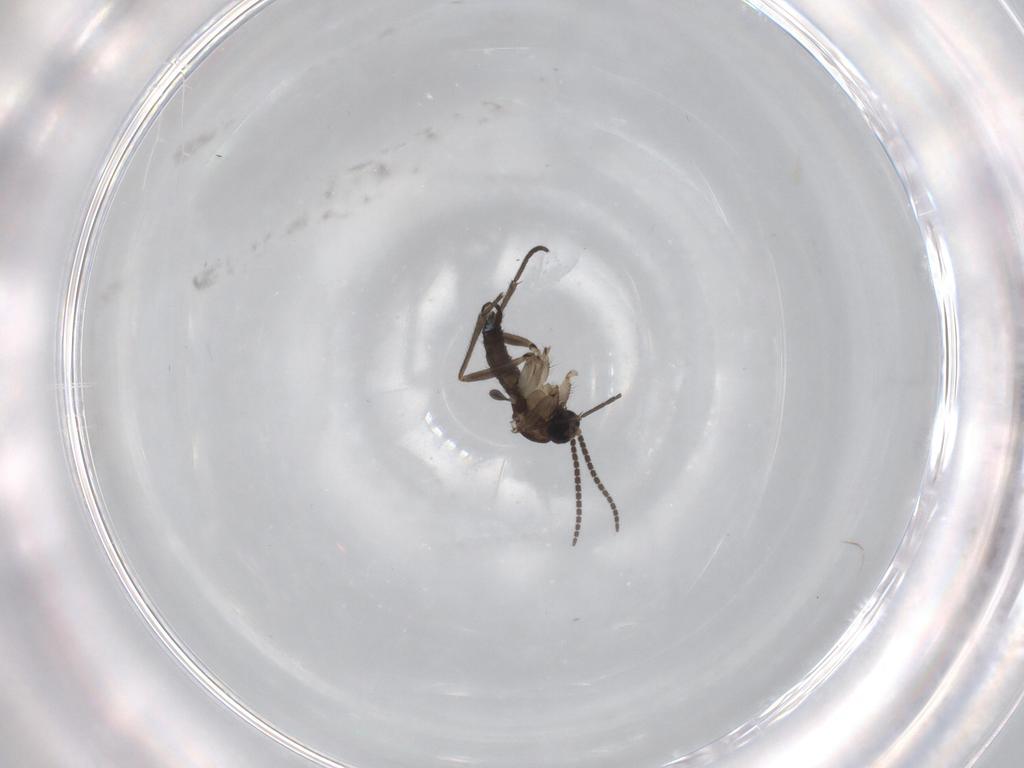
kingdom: Animalia
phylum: Arthropoda
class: Insecta
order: Diptera
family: Sciaridae
